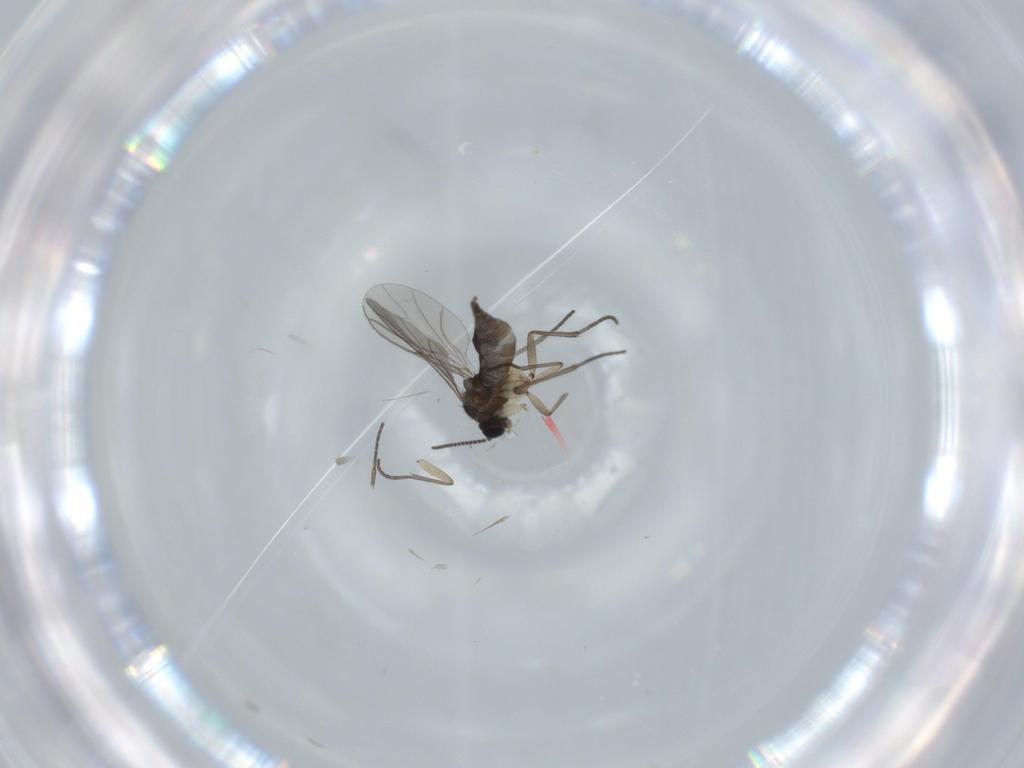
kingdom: Animalia
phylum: Arthropoda
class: Insecta
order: Diptera
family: Sciaridae
